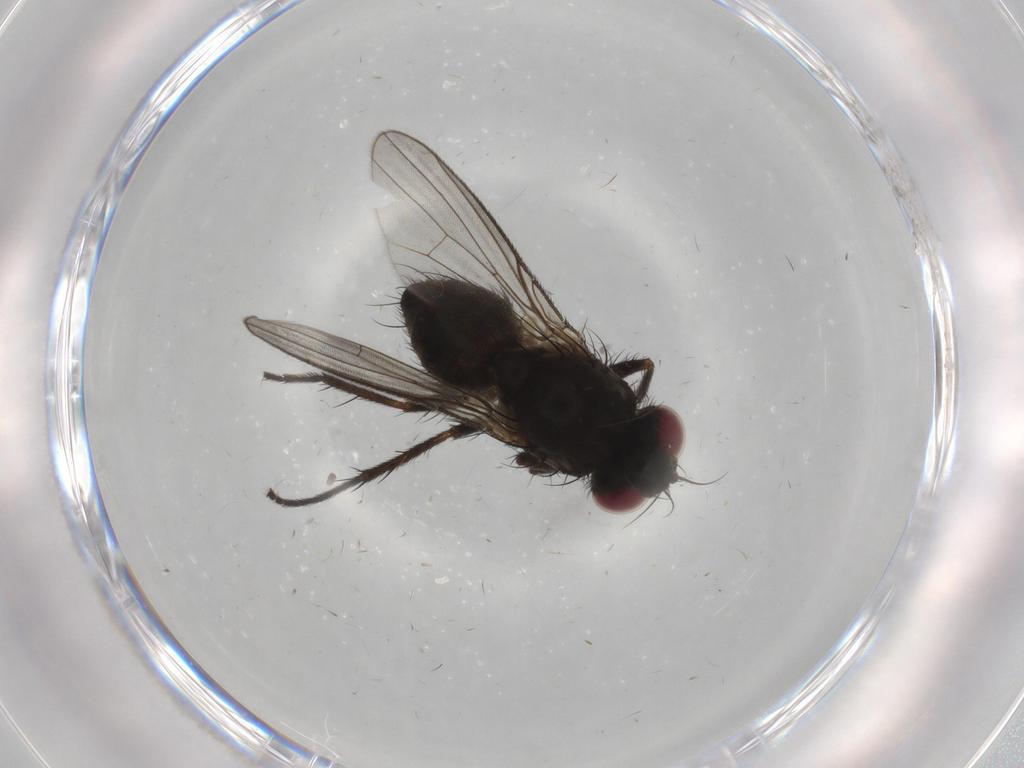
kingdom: Animalia
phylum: Arthropoda
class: Insecta
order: Diptera
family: Muscidae
